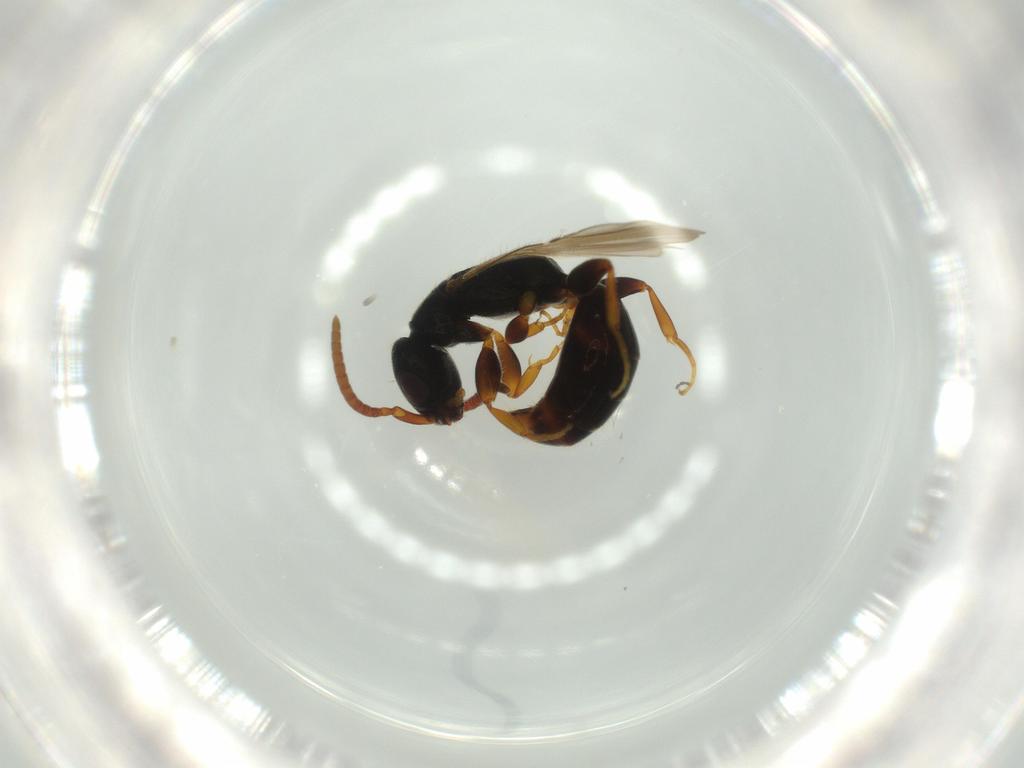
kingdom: Animalia
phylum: Arthropoda
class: Insecta
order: Hymenoptera
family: Bethylidae
